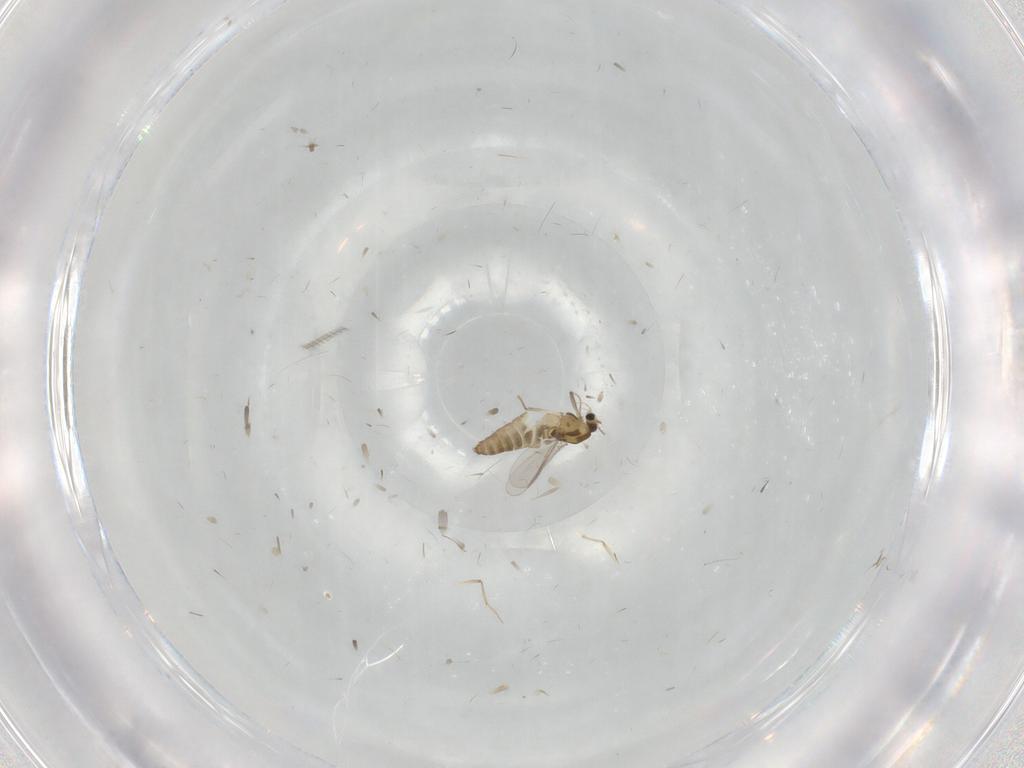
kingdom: Animalia
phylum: Arthropoda
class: Insecta
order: Diptera
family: Chironomidae
